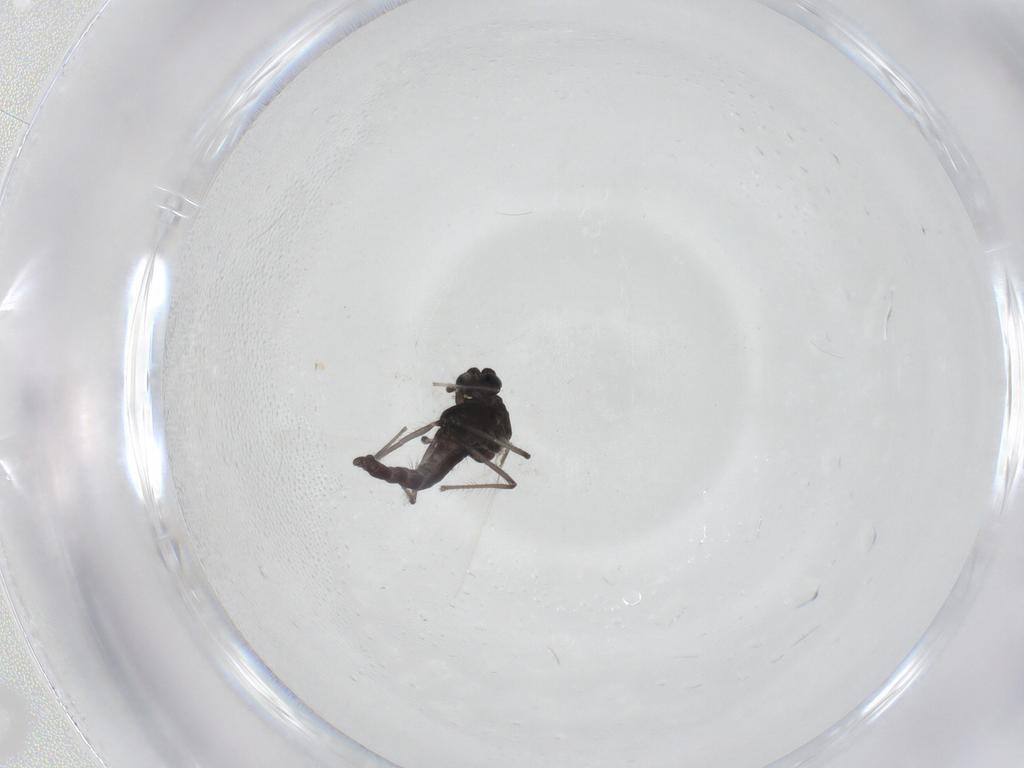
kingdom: Animalia
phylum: Arthropoda
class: Insecta
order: Diptera
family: Chironomidae
